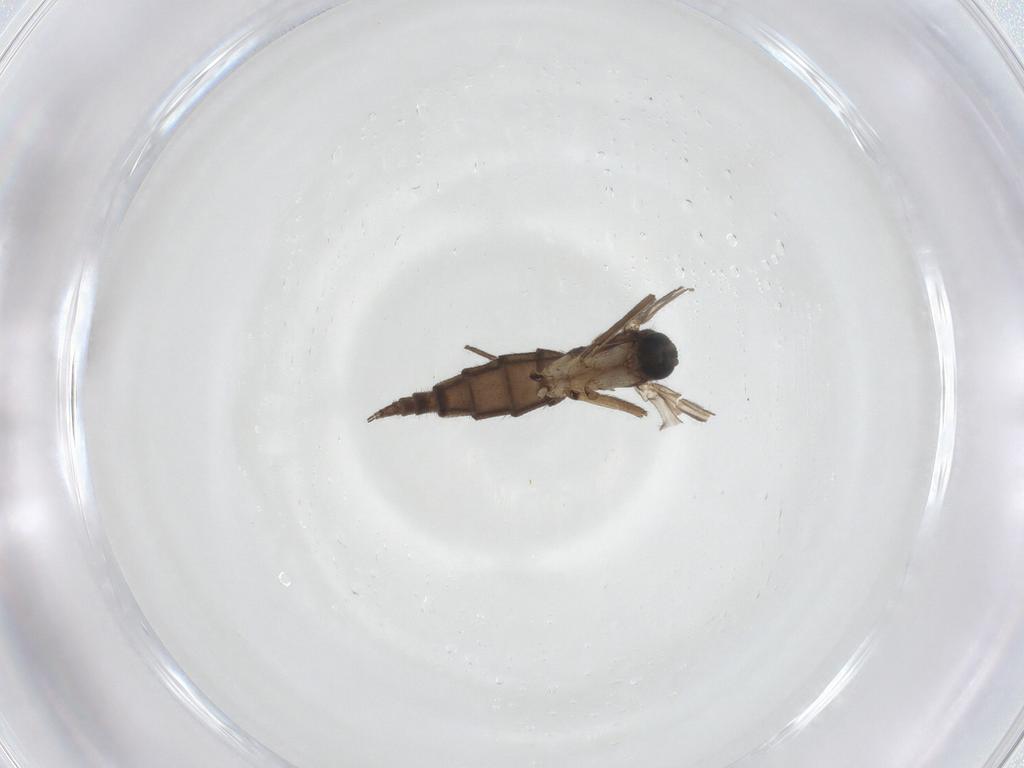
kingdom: Animalia
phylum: Arthropoda
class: Insecta
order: Diptera
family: Sciaridae
